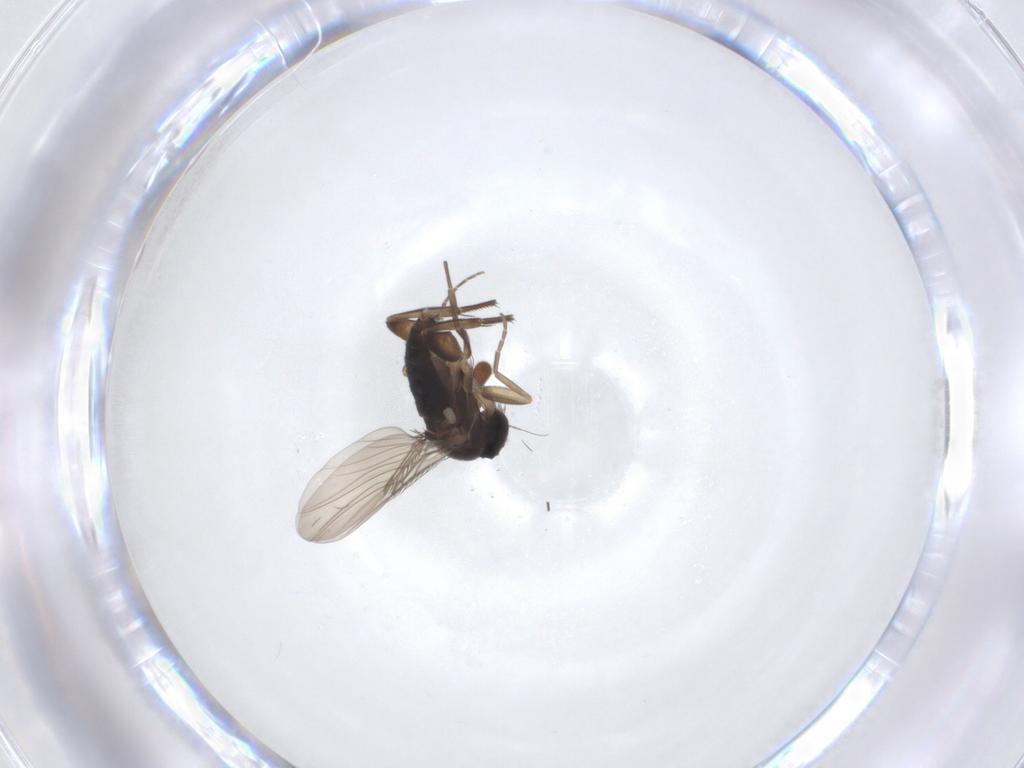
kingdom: Animalia
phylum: Arthropoda
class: Insecta
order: Diptera
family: Phoridae
